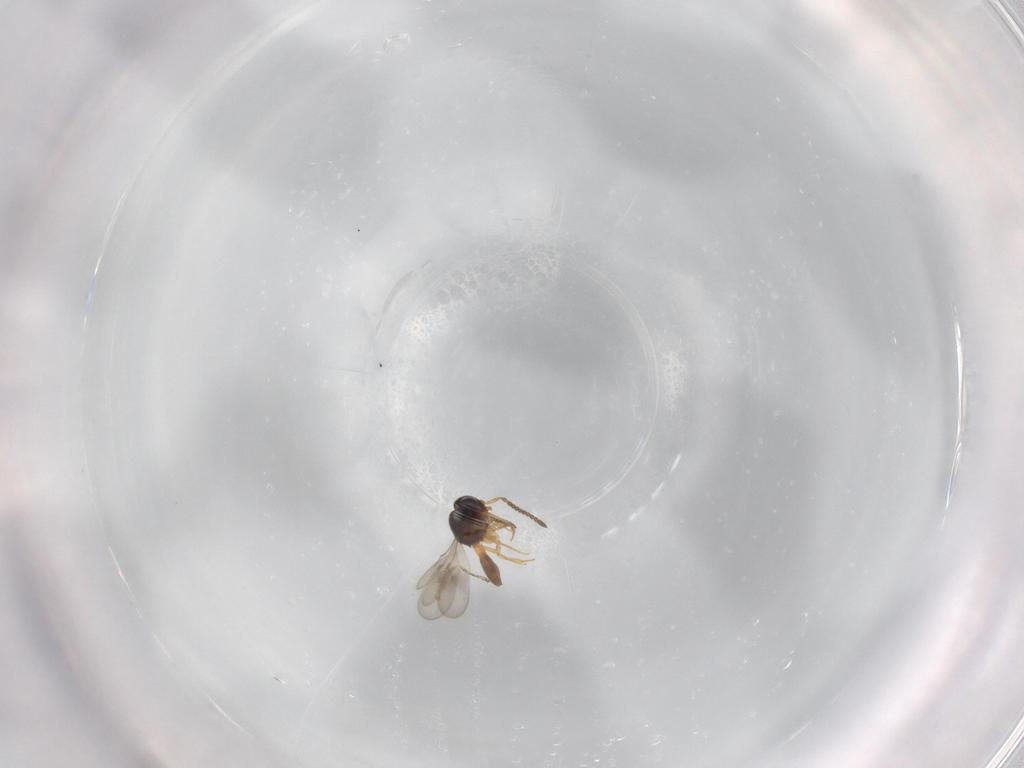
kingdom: Animalia
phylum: Arthropoda
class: Insecta
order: Hymenoptera
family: Scelionidae
